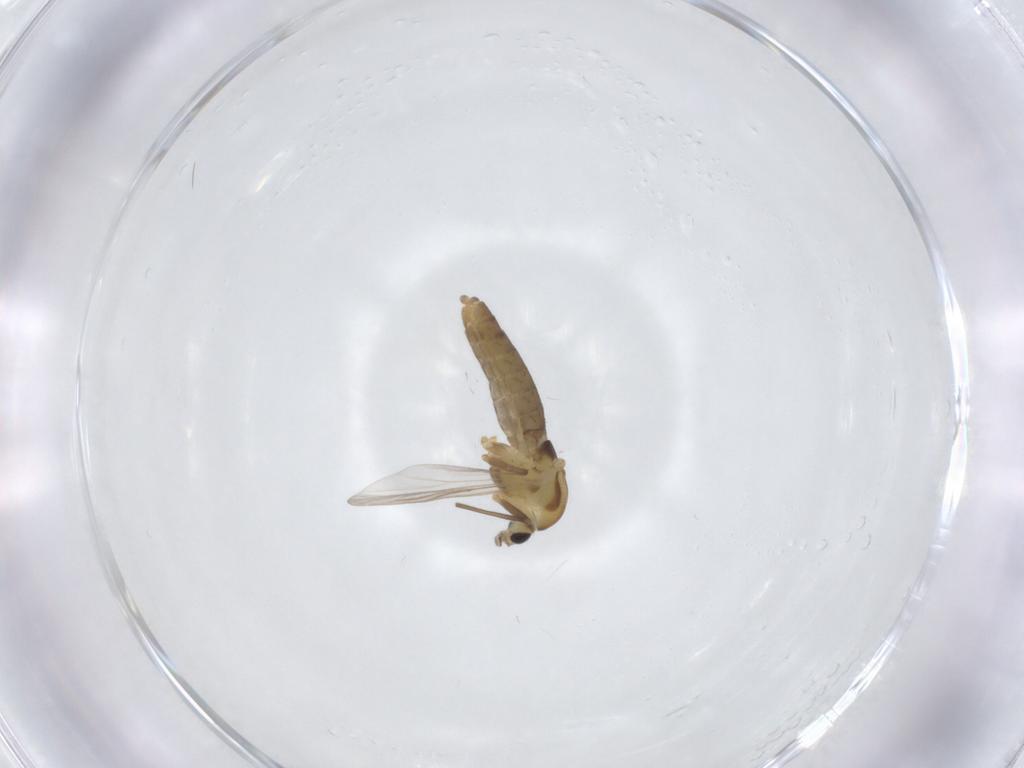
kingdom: Animalia
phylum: Arthropoda
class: Insecta
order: Diptera
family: Chironomidae
